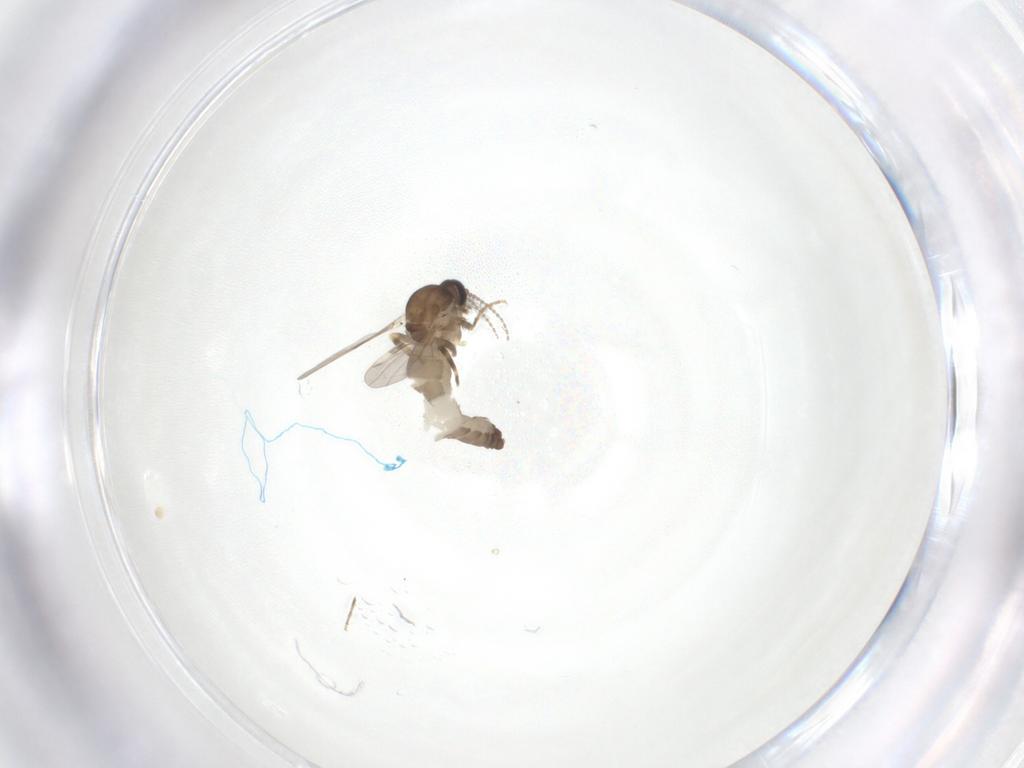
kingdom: Animalia
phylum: Arthropoda
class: Insecta
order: Diptera
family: Ceratopogonidae
